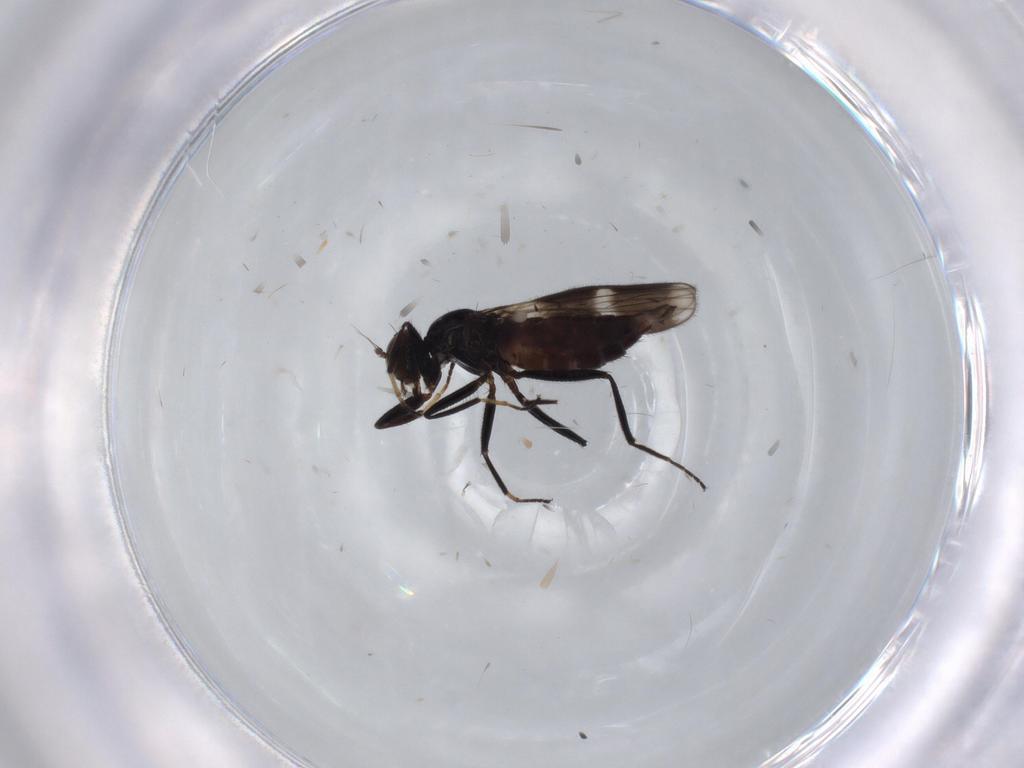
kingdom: Animalia
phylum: Arthropoda
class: Insecta
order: Diptera
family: Hybotidae
